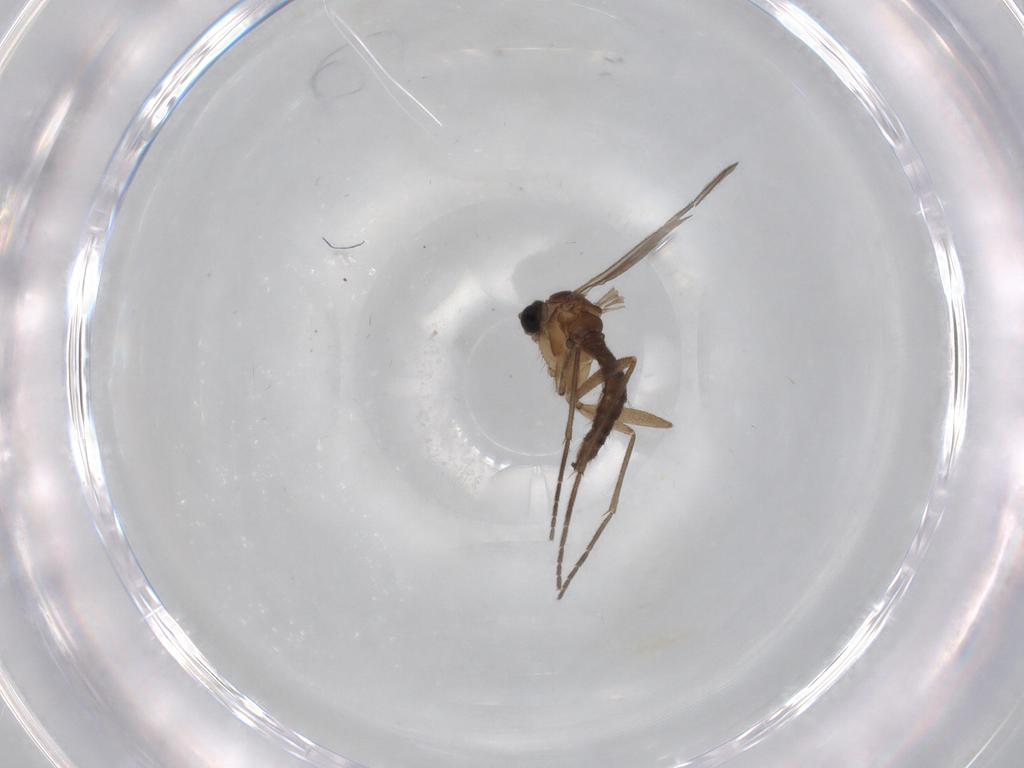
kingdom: Animalia
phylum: Arthropoda
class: Insecta
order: Diptera
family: Sciaridae
